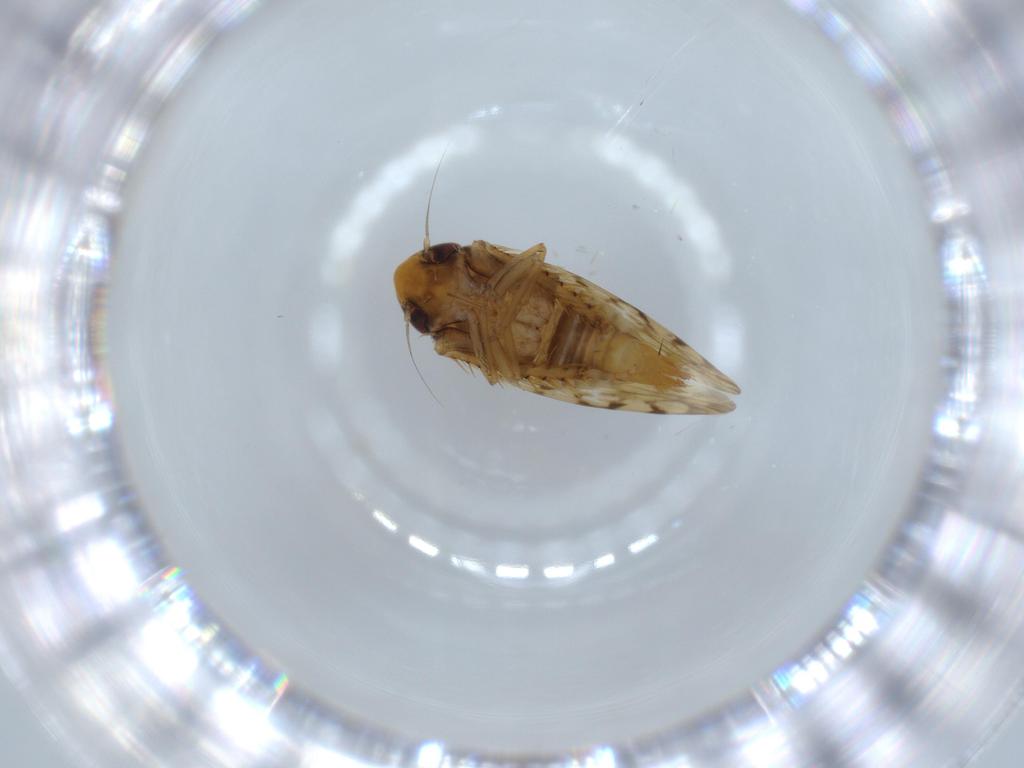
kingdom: Animalia
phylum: Arthropoda
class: Insecta
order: Hemiptera
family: Cicadellidae
